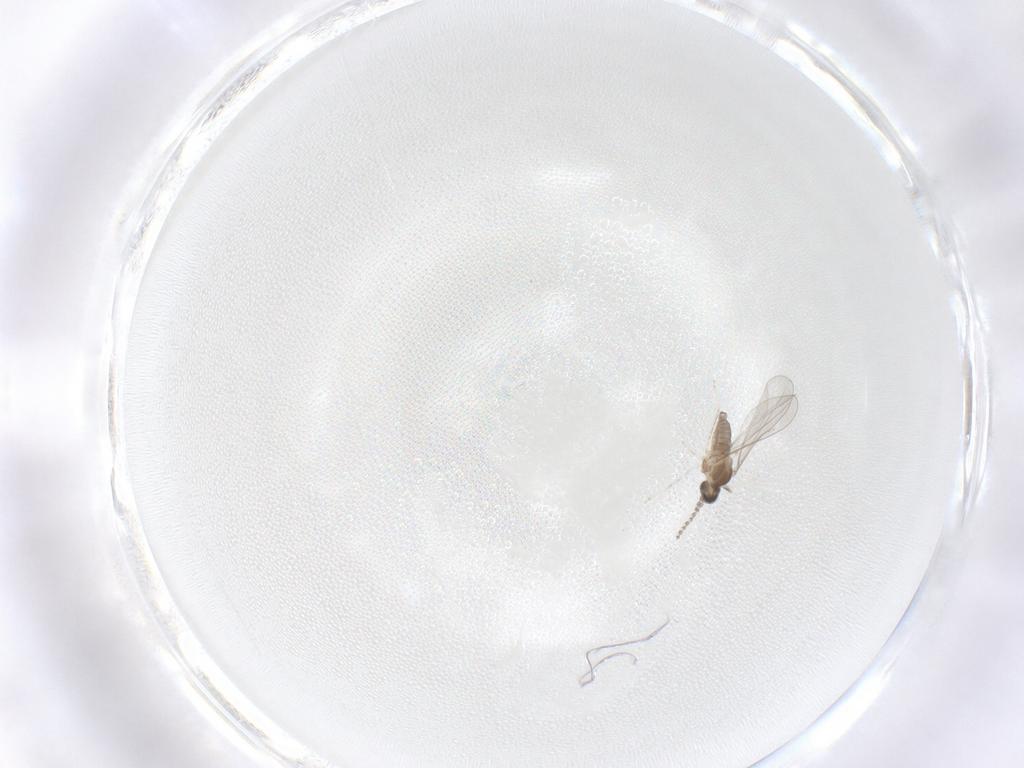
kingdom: Animalia
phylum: Arthropoda
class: Insecta
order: Diptera
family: Cecidomyiidae
